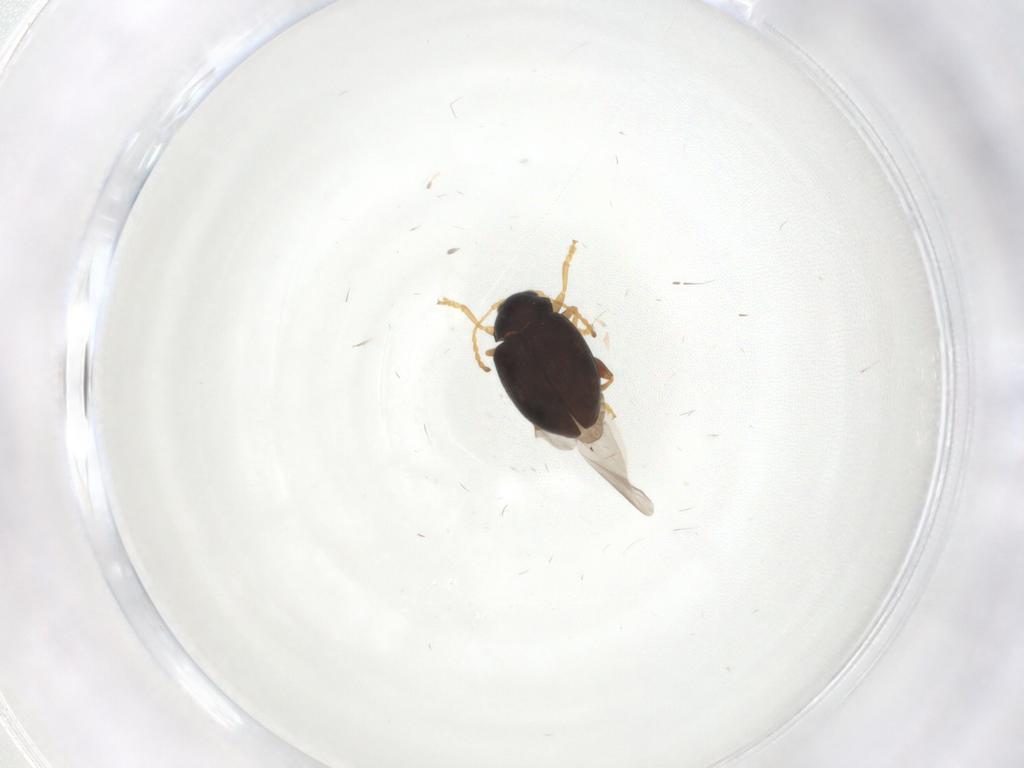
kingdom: Animalia
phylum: Arthropoda
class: Insecta
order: Coleoptera
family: Chrysomelidae
